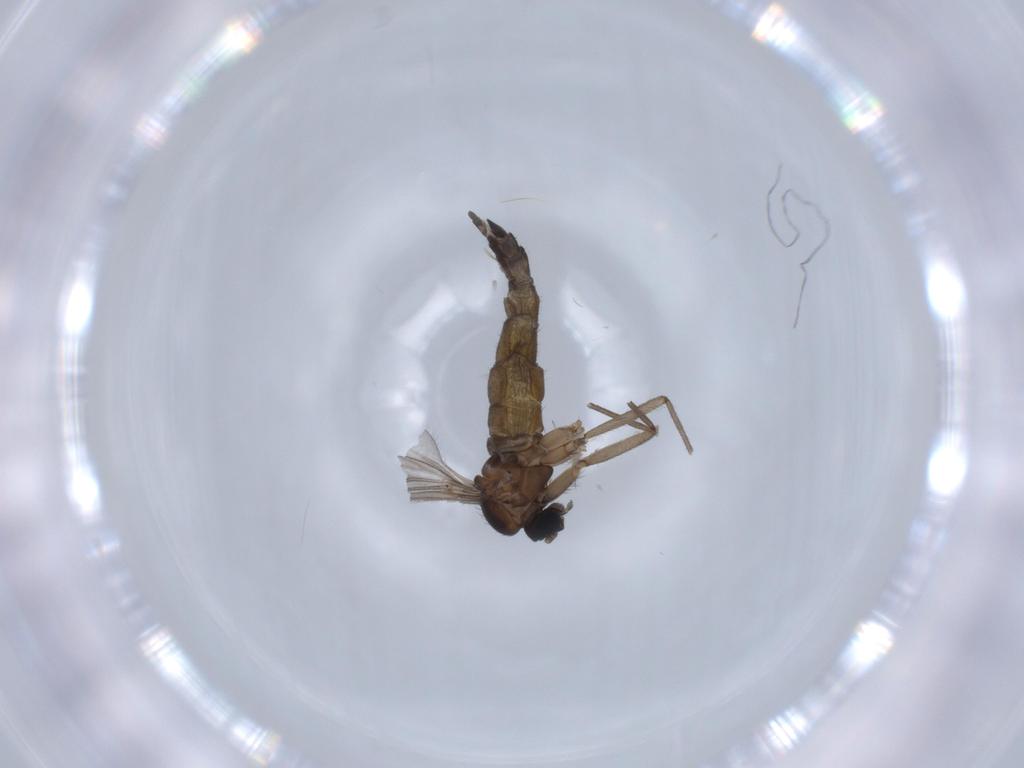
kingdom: Animalia
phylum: Arthropoda
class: Insecta
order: Diptera
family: Sciaridae
